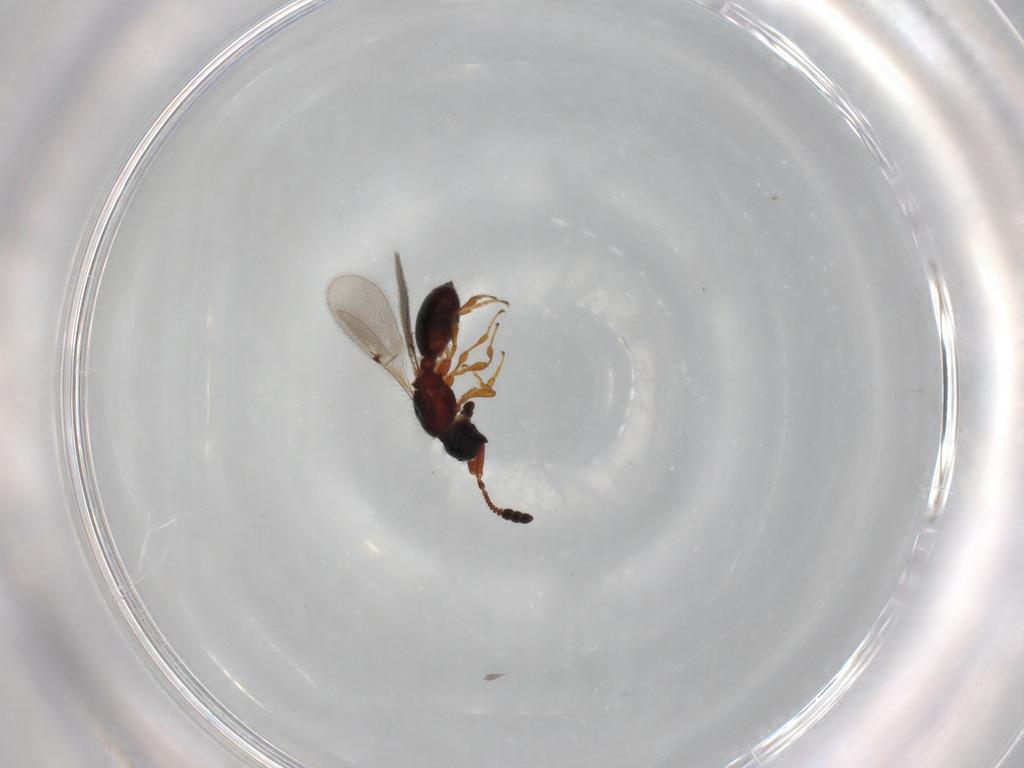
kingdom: Animalia
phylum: Arthropoda
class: Insecta
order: Hymenoptera
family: Diapriidae
